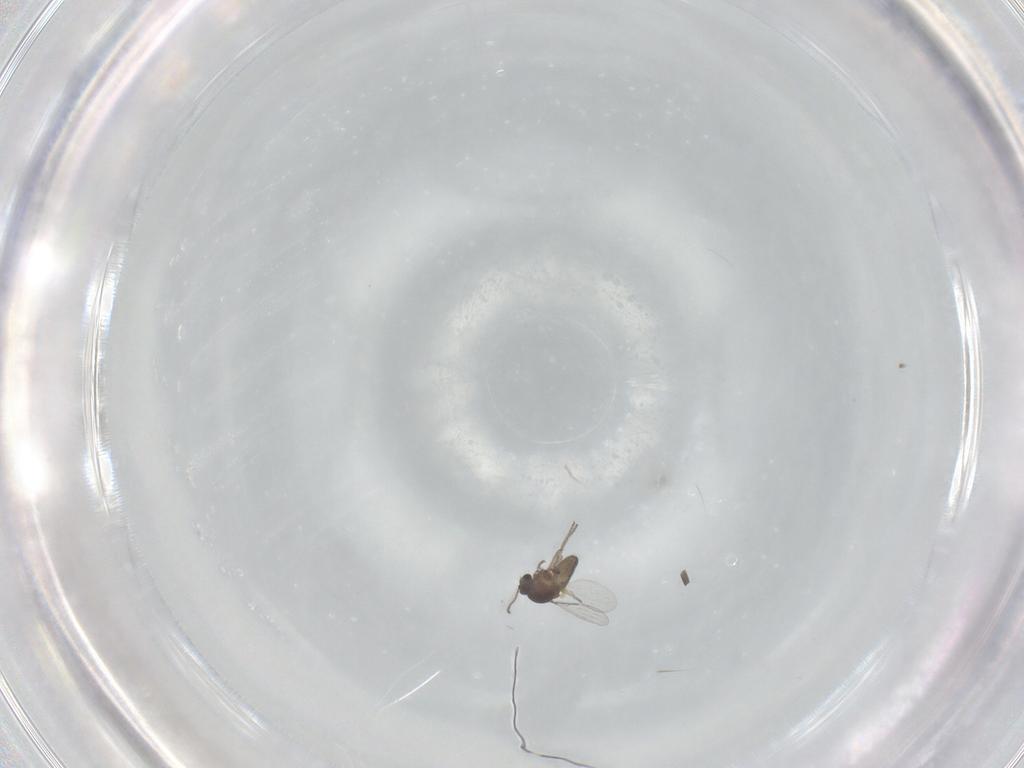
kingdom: Animalia
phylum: Arthropoda
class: Insecta
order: Diptera
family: Ceratopogonidae
